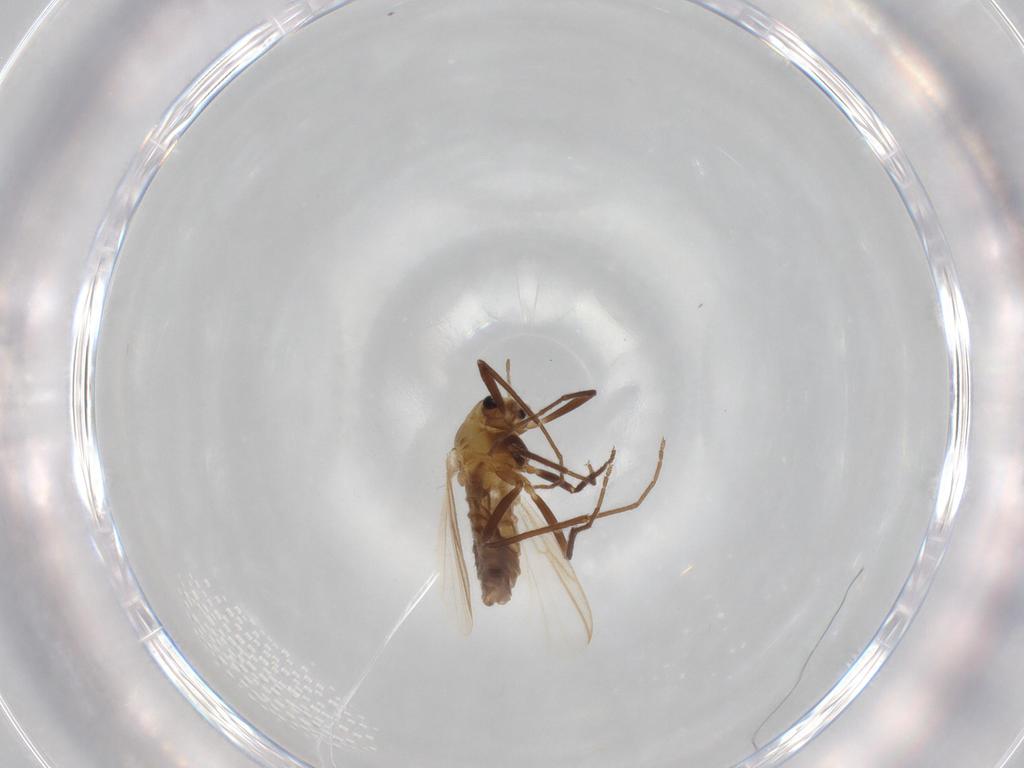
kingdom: Animalia
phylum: Arthropoda
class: Insecta
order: Diptera
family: Chironomidae
